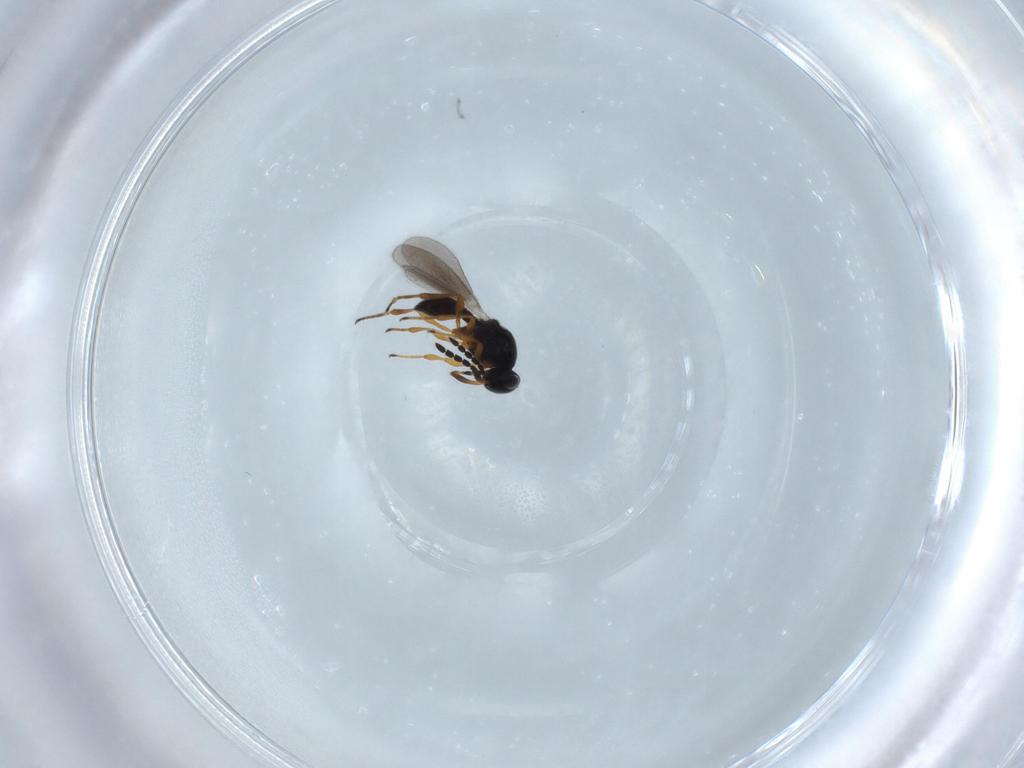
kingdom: Animalia
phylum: Arthropoda
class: Insecta
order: Hymenoptera
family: Platygastridae
